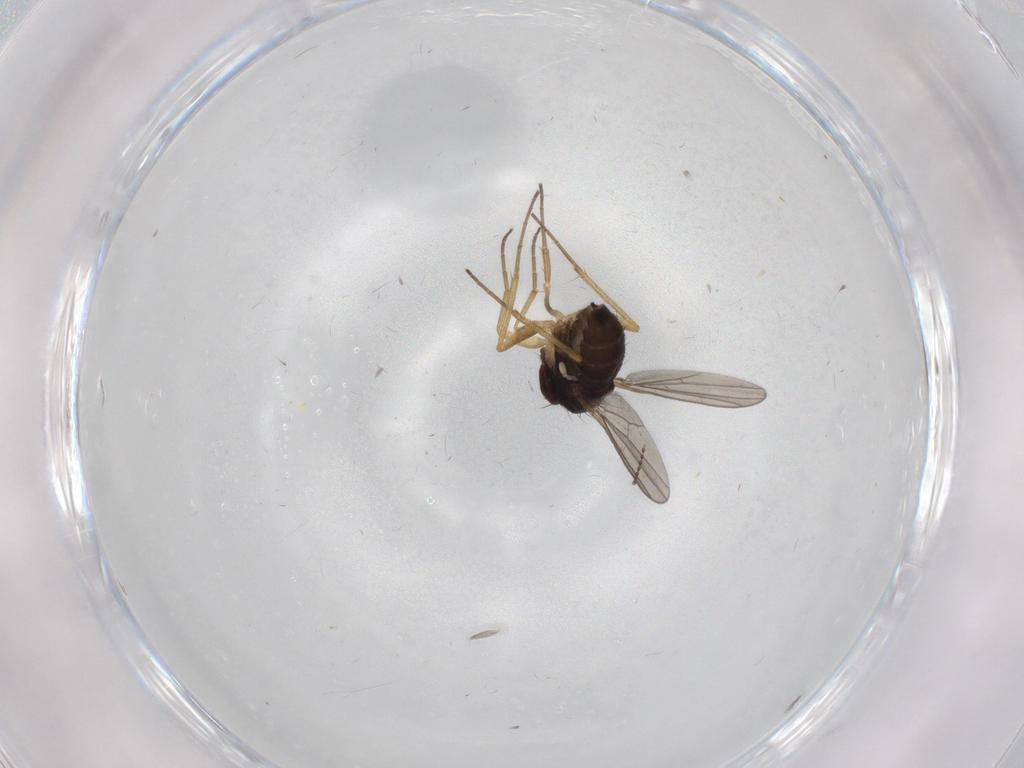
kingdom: Animalia
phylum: Arthropoda
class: Insecta
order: Diptera
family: Dolichopodidae
